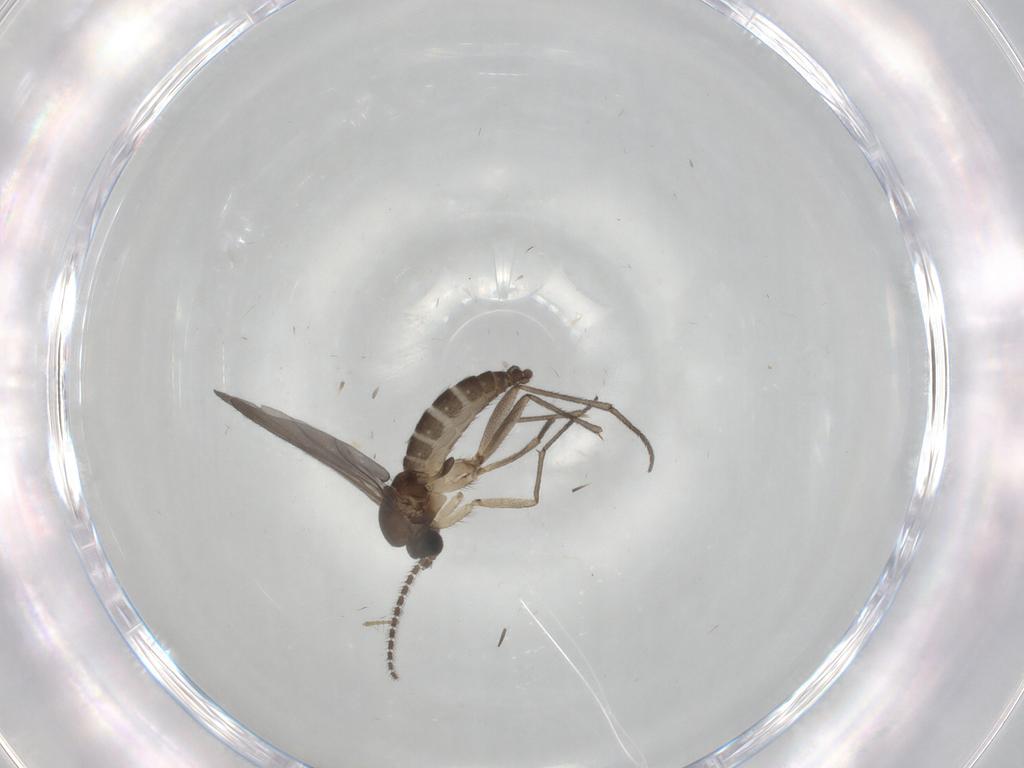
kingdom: Animalia
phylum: Arthropoda
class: Insecta
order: Diptera
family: Sciaridae
